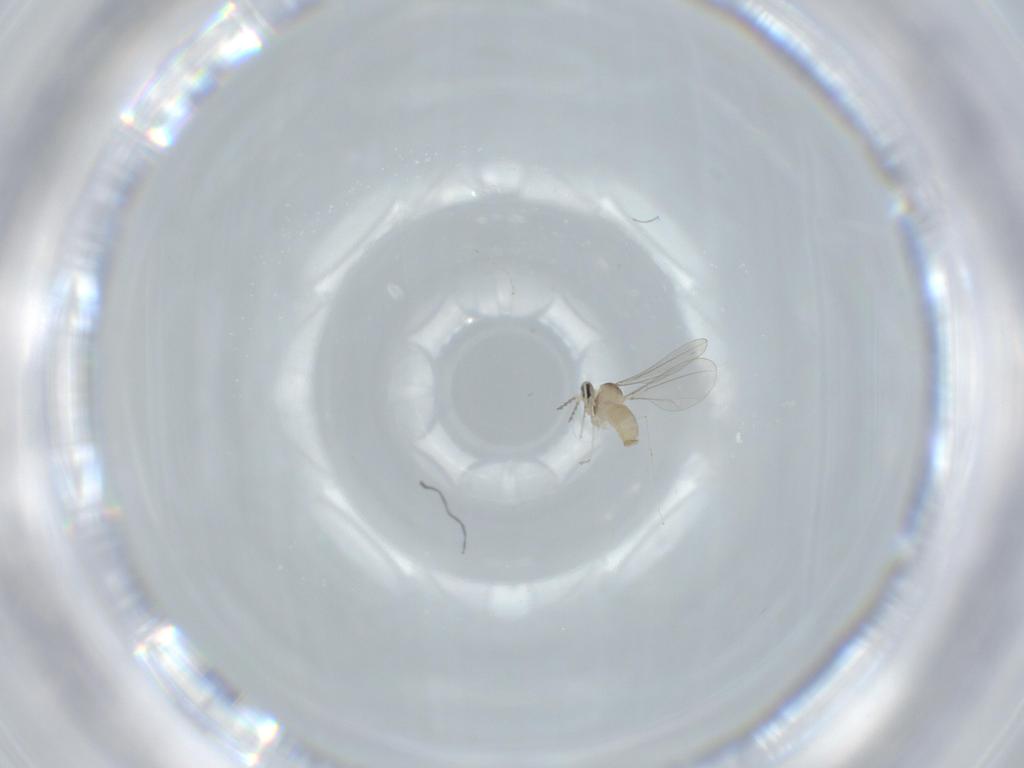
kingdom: Animalia
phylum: Arthropoda
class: Insecta
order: Diptera
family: Cecidomyiidae
